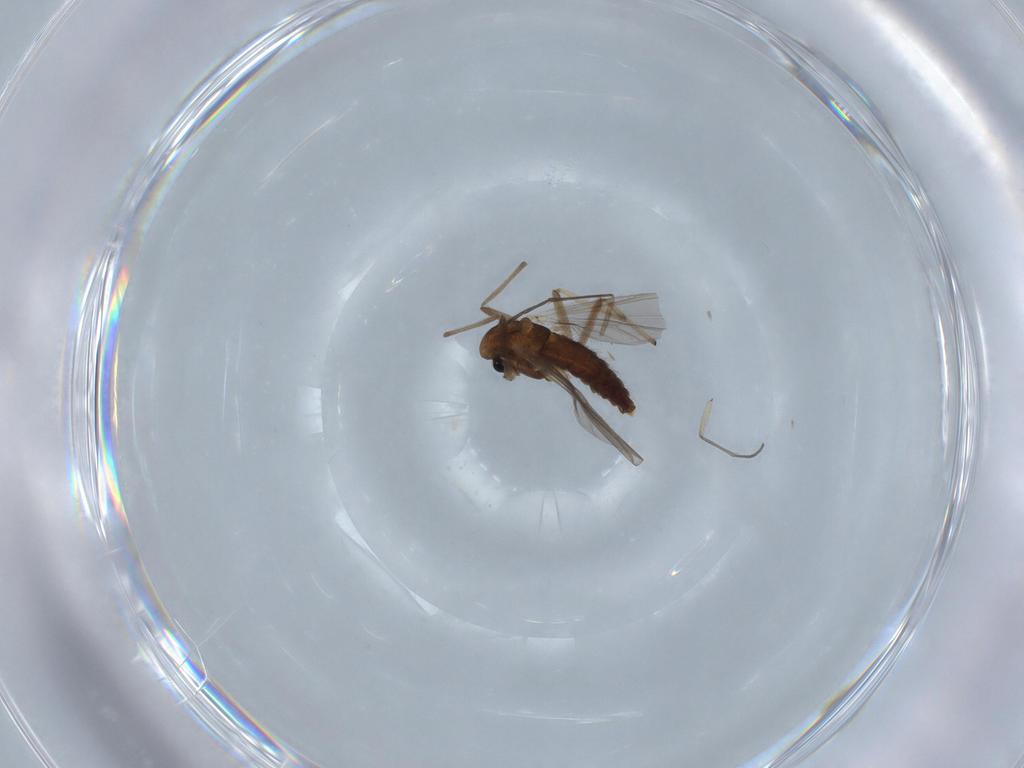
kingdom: Animalia
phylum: Arthropoda
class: Insecta
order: Diptera
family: Chironomidae
